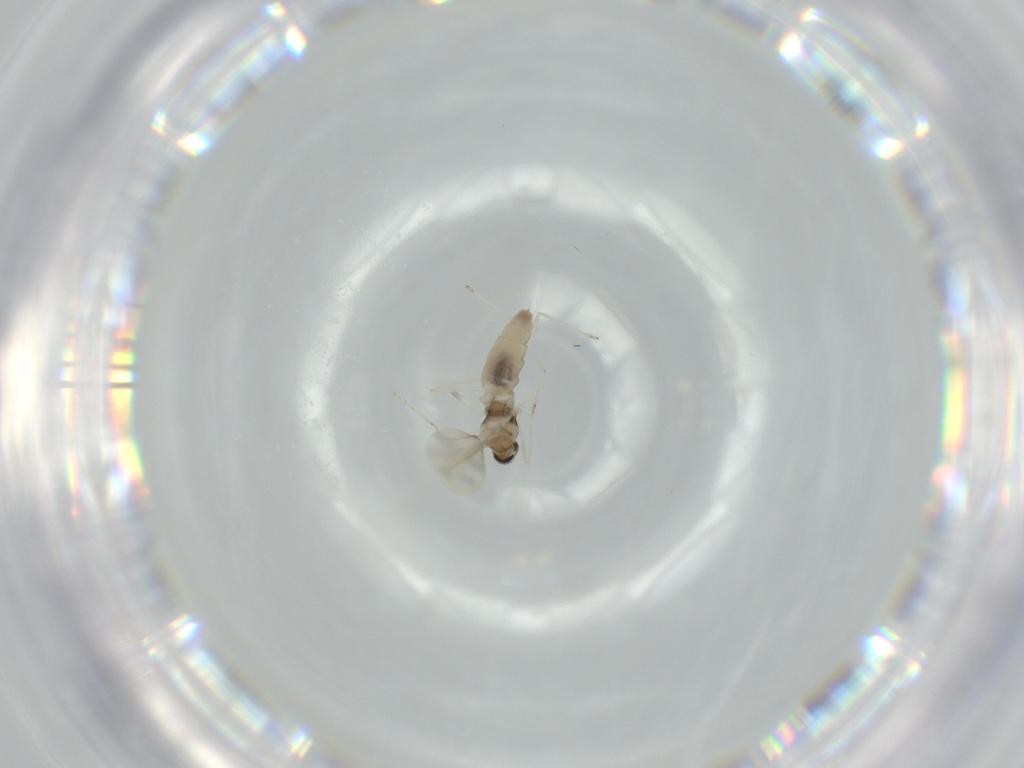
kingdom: Animalia
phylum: Arthropoda
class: Insecta
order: Diptera
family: Cecidomyiidae
